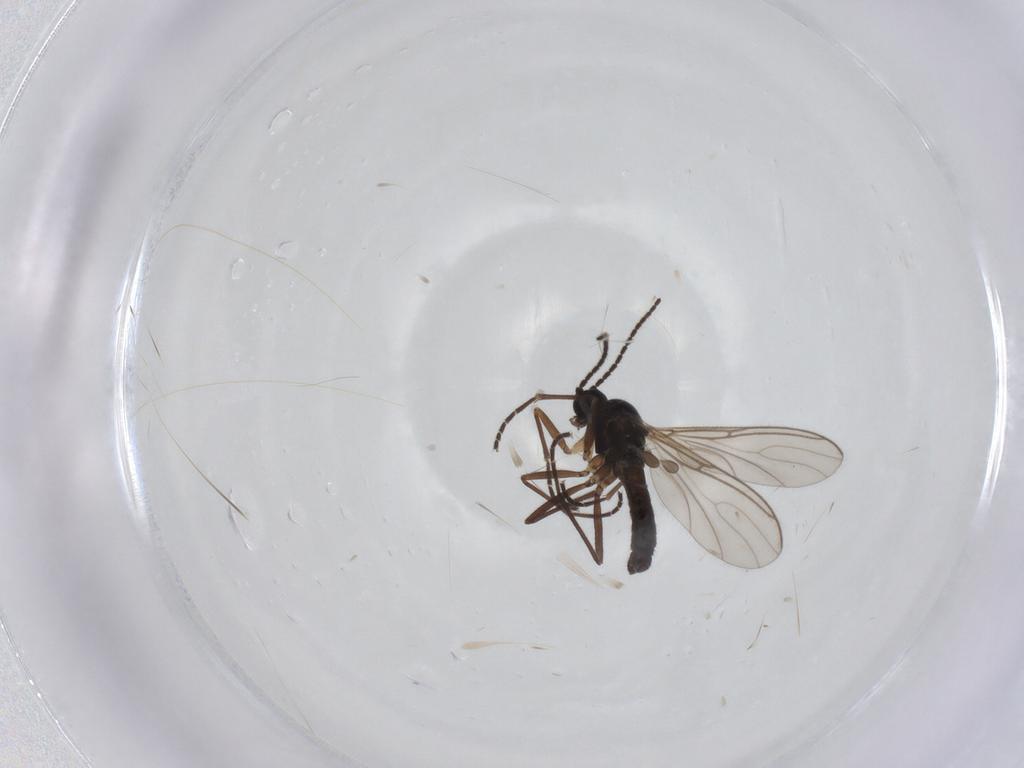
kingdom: Animalia
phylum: Arthropoda
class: Insecta
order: Diptera
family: Sciaridae
